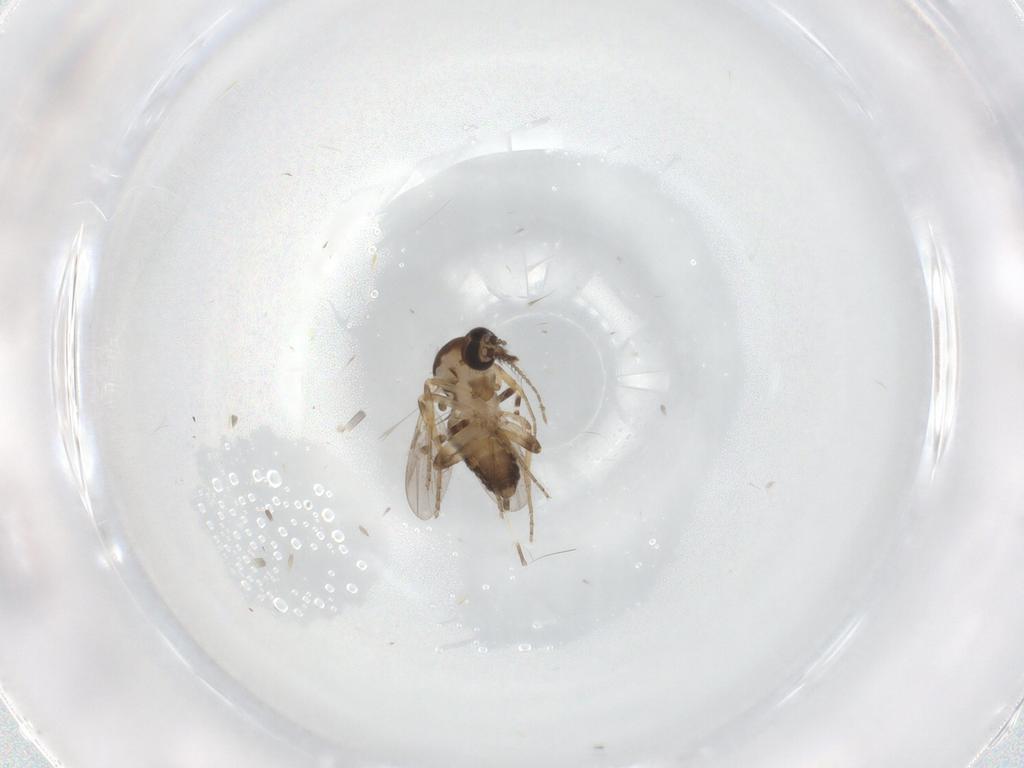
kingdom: Animalia
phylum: Arthropoda
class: Insecta
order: Diptera
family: Ceratopogonidae
